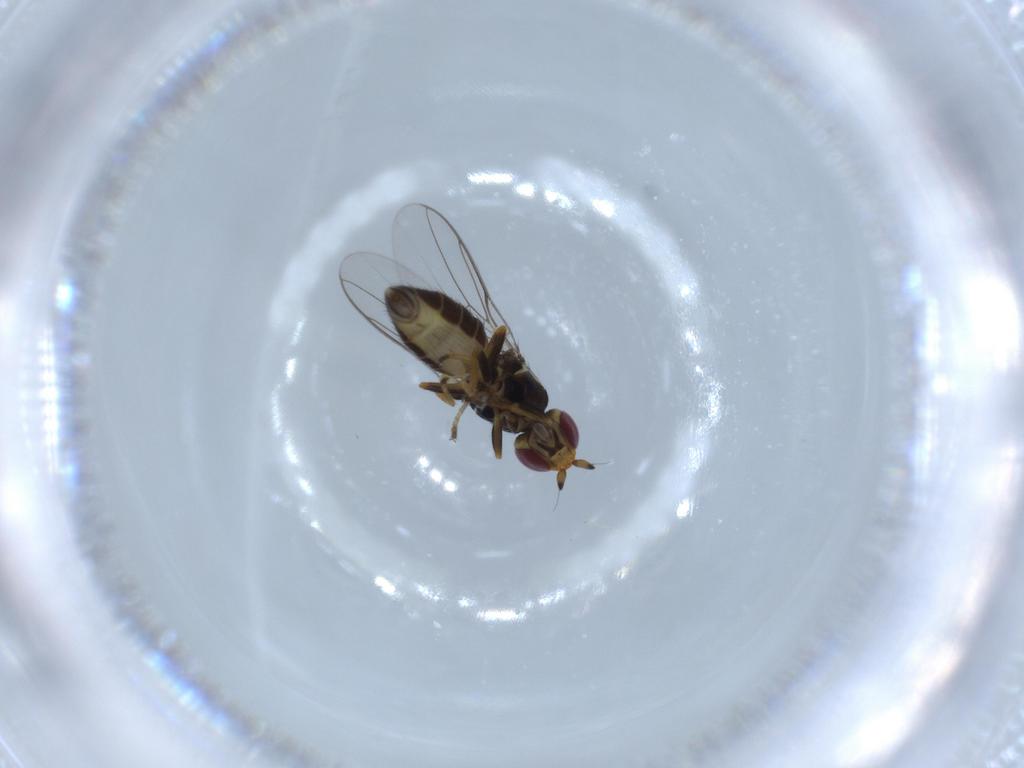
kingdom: Animalia
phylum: Arthropoda
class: Insecta
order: Diptera
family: Chloropidae
